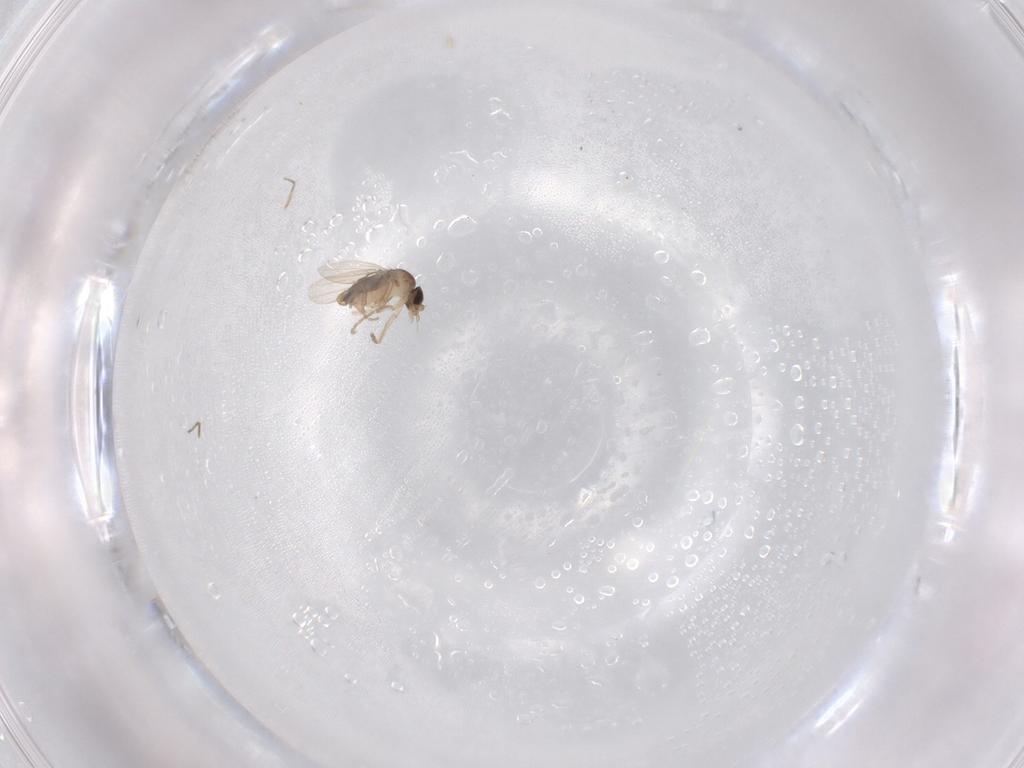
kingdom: Animalia
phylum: Arthropoda
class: Insecta
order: Diptera
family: Phoridae
